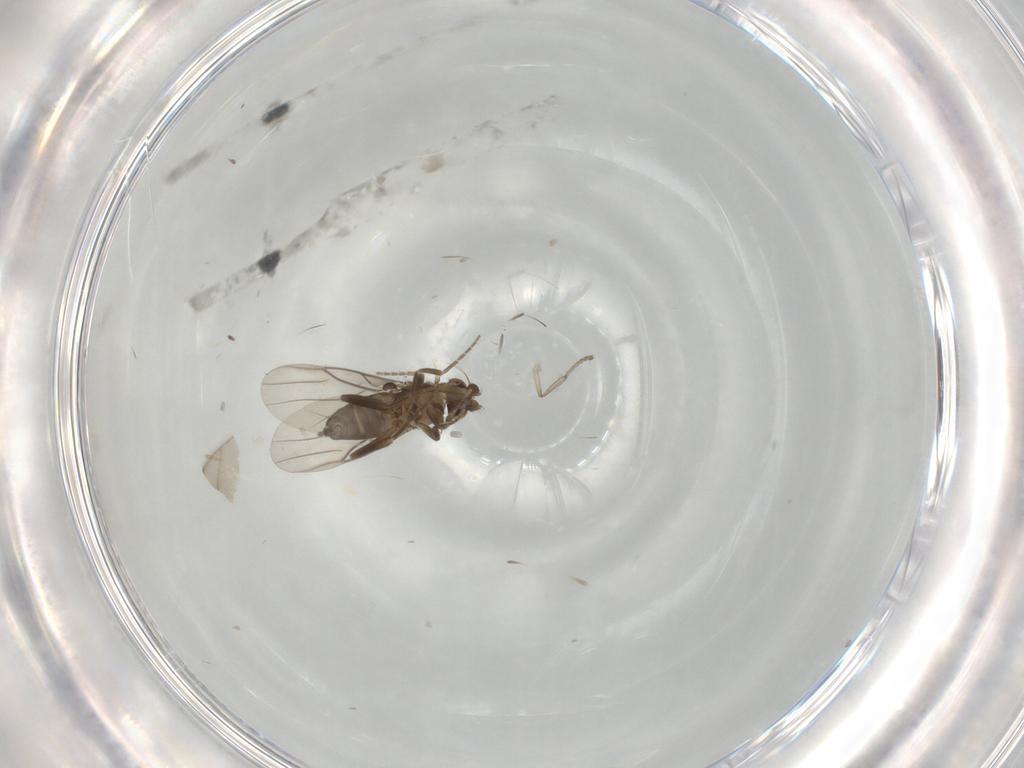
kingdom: Animalia
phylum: Arthropoda
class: Insecta
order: Diptera
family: Psychodidae
